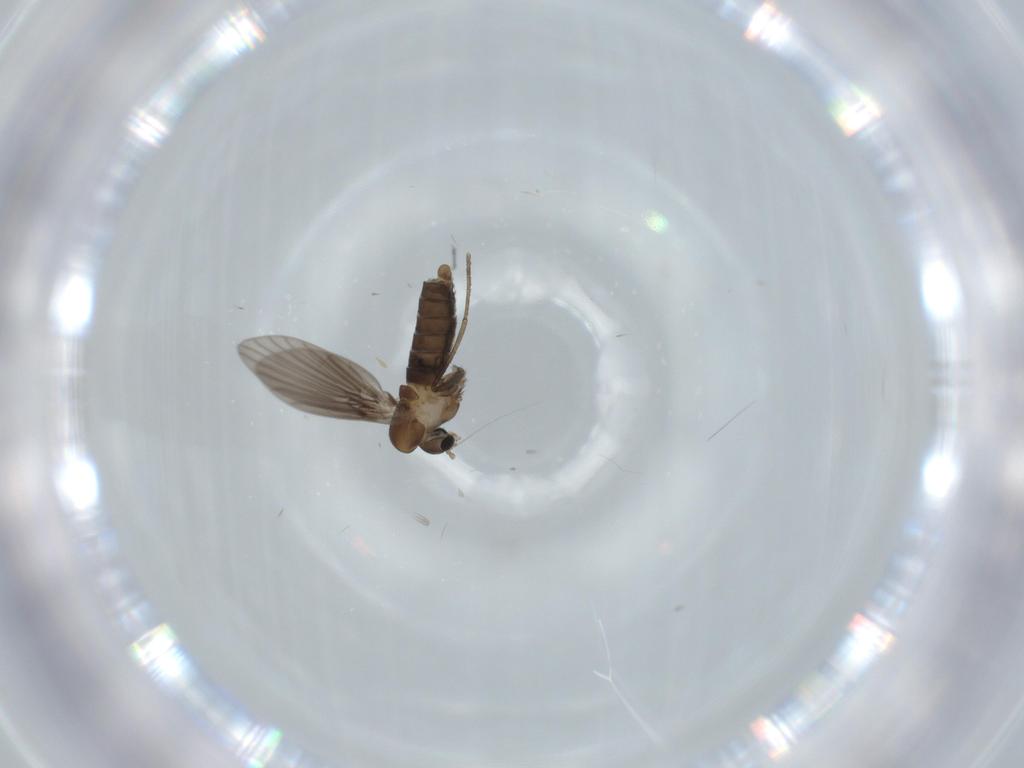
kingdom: Animalia
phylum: Arthropoda
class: Insecta
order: Diptera
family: Psychodidae
